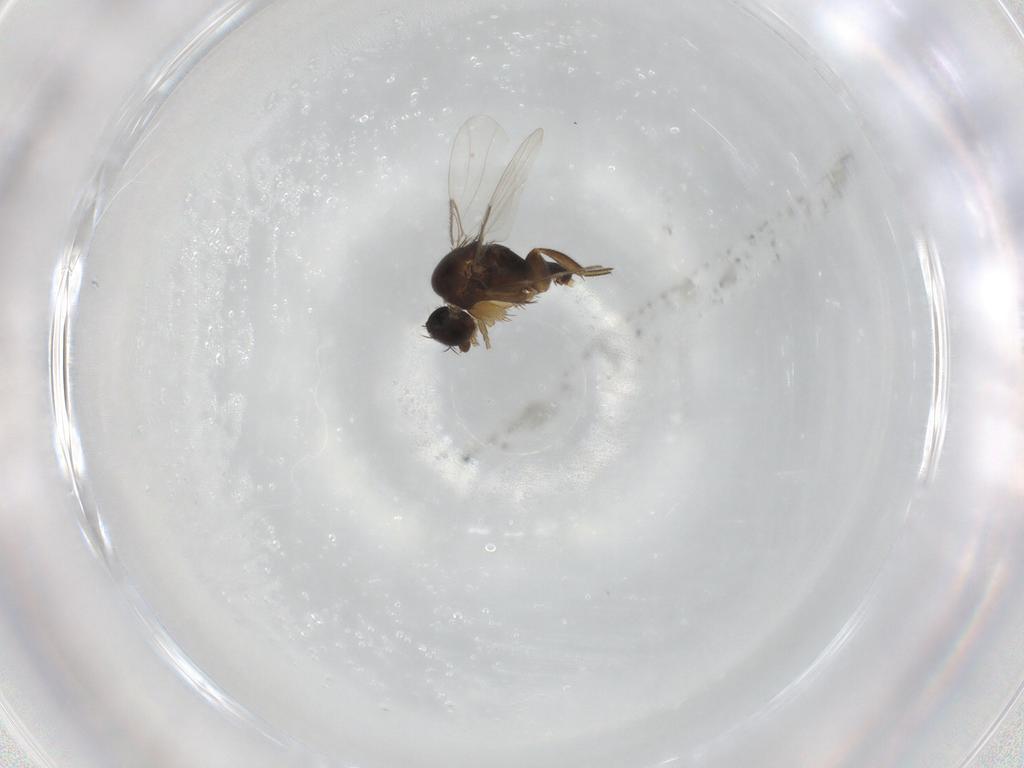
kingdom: Animalia
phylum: Arthropoda
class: Insecta
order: Diptera
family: Phoridae
